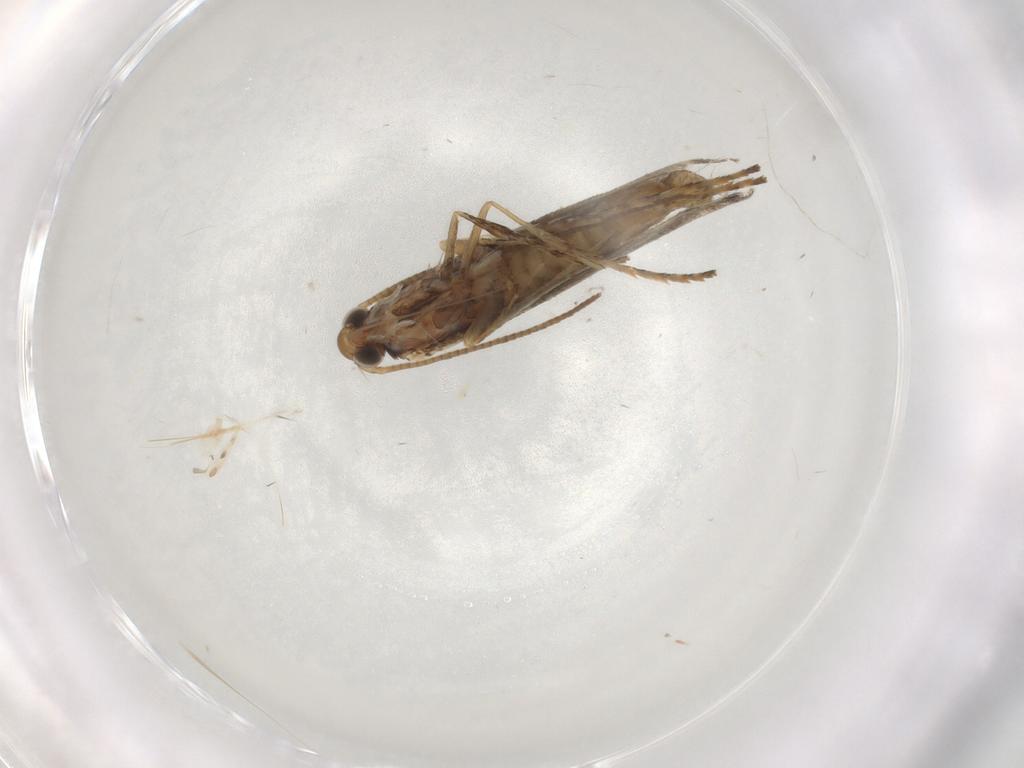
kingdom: Animalia
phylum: Arthropoda
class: Insecta
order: Lepidoptera
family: Gracillariidae
